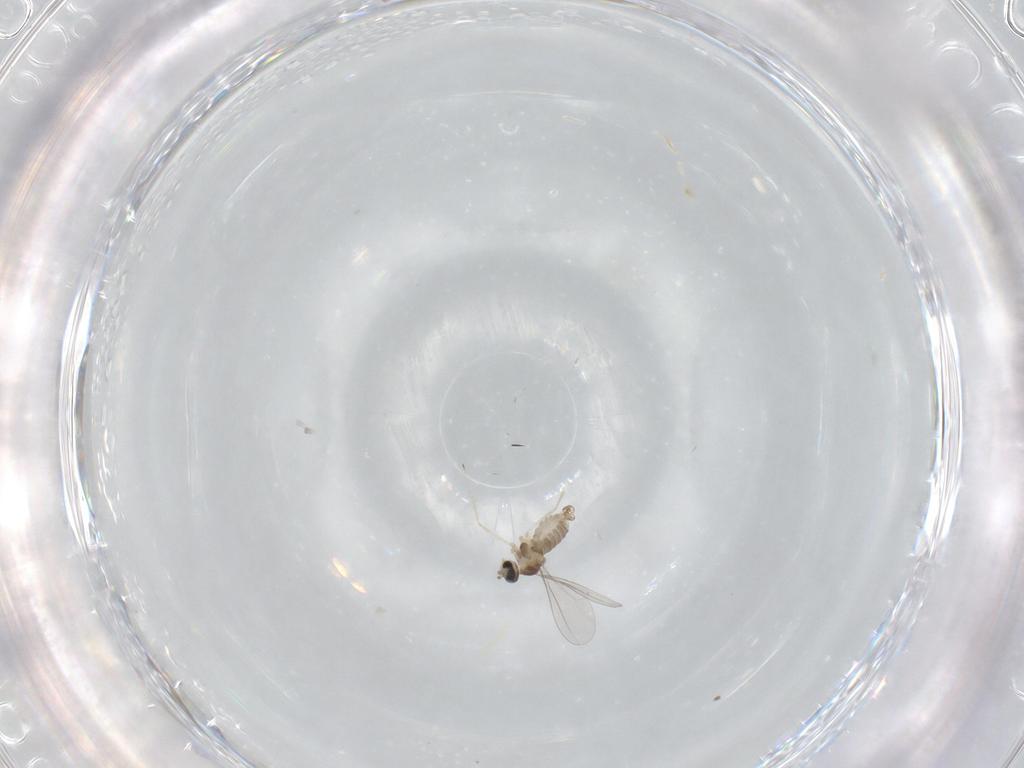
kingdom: Animalia
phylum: Arthropoda
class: Insecta
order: Diptera
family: Cecidomyiidae
